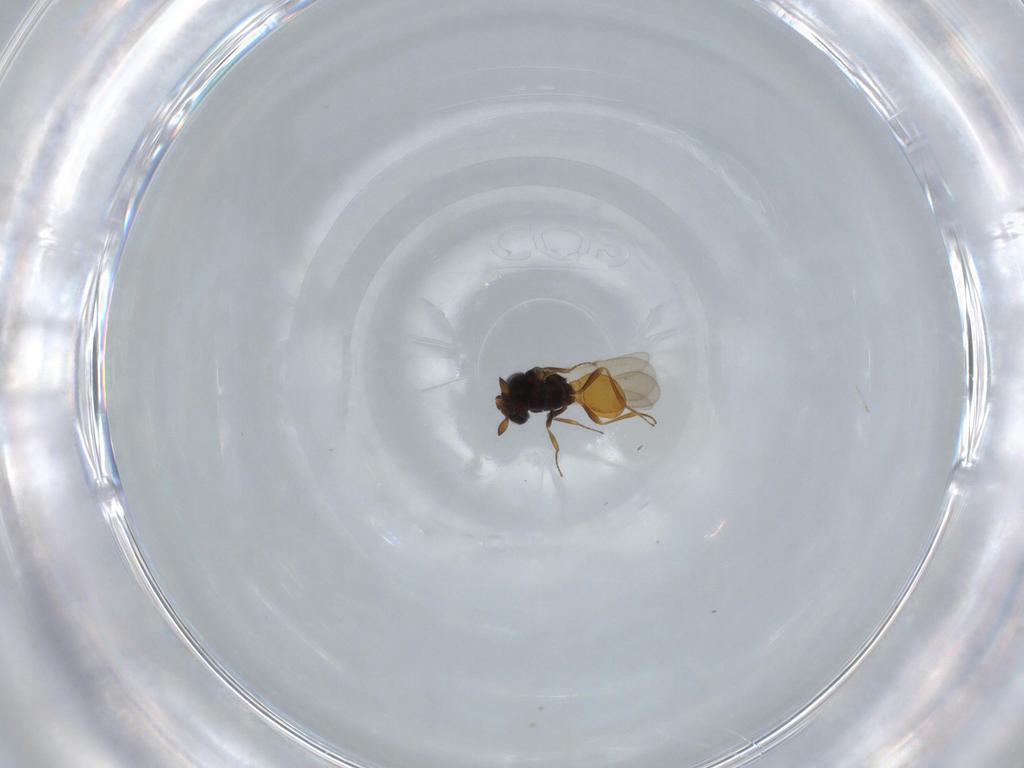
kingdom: Animalia
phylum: Arthropoda
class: Insecta
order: Hymenoptera
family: Scelionidae
